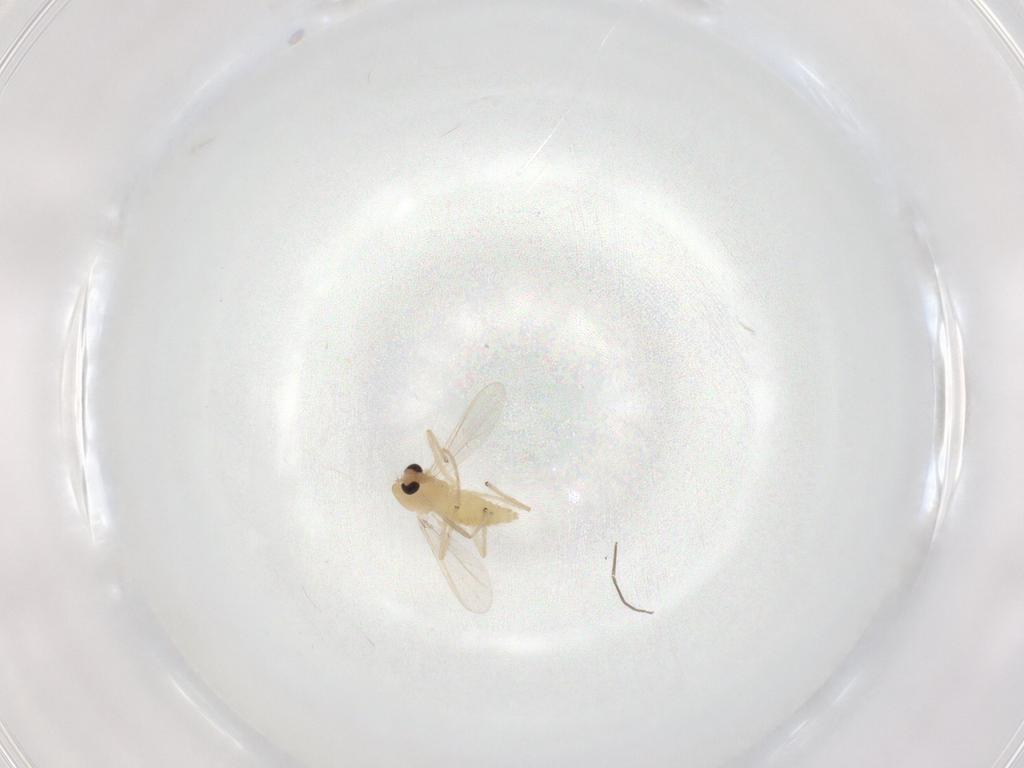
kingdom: Animalia
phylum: Arthropoda
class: Insecta
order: Diptera
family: Chironomidae
